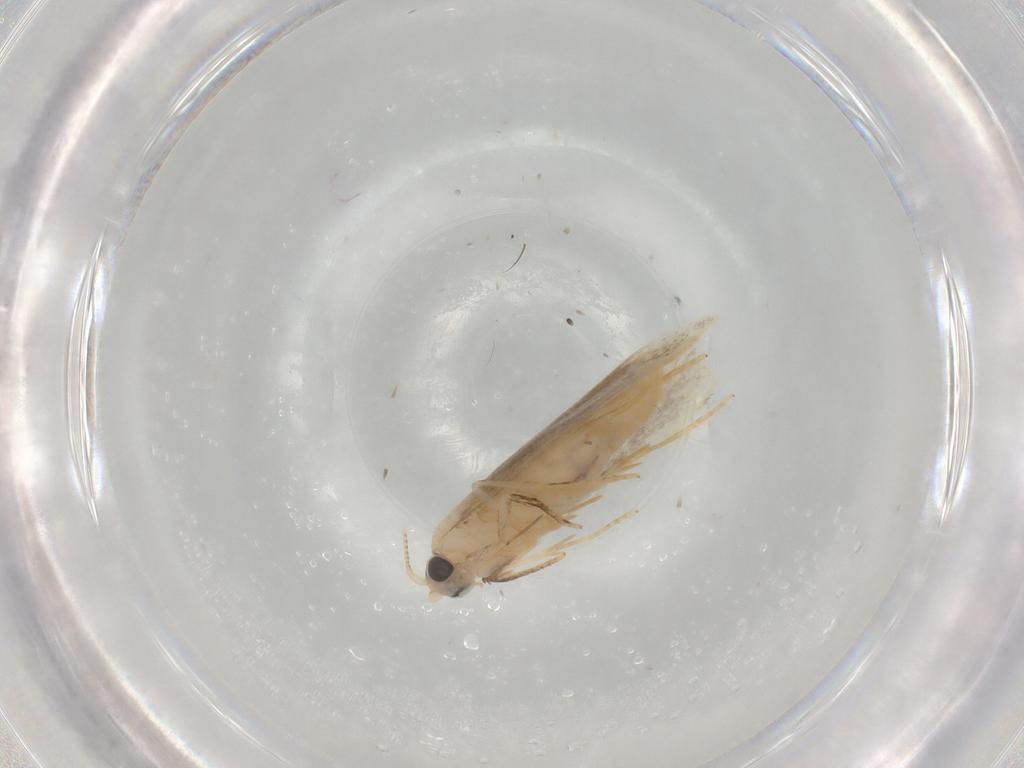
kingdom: Animalia
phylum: Arthropoda
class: Insecta
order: Lepidoptera
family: Nepticulidae
